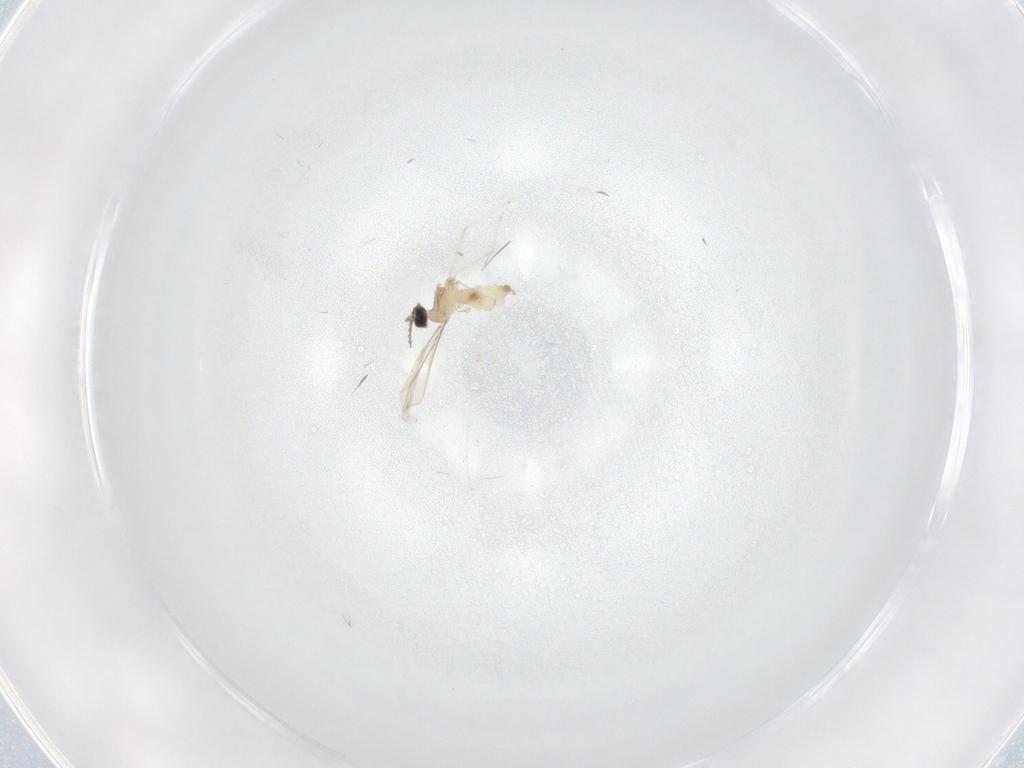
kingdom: Animalia
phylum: Arthropoda
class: Insecta
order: Diptera
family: Cecidomyiidae
